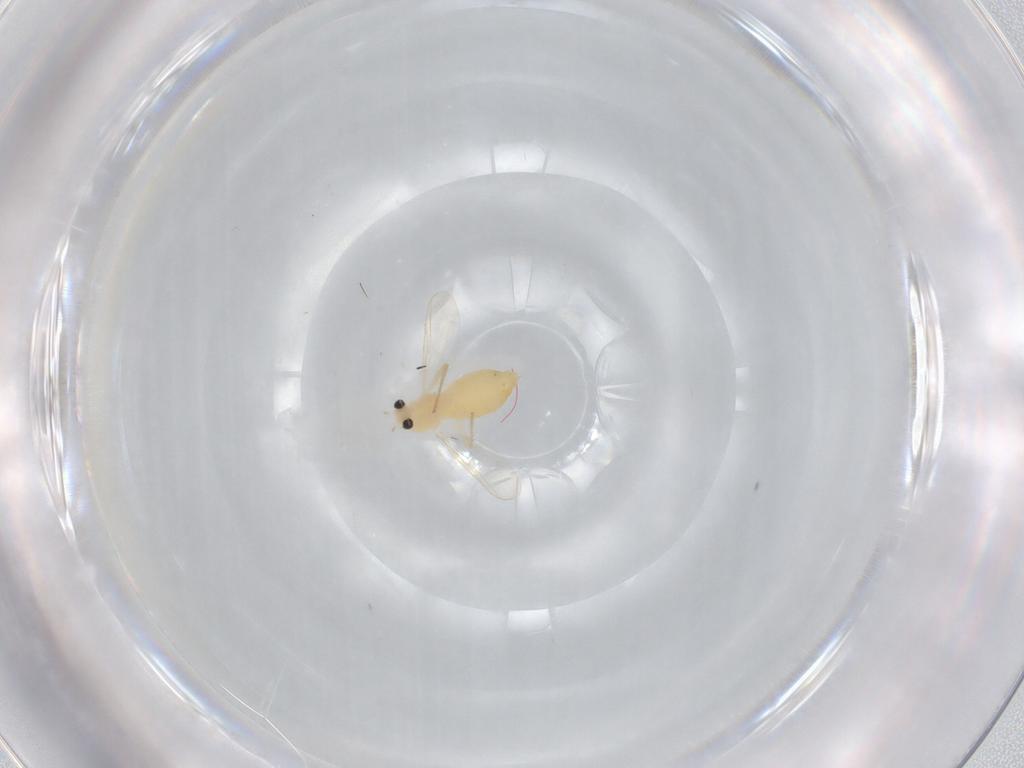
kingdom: Animalia
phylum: Arthropoda
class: Insecta
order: Diptera
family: Chironomidae
